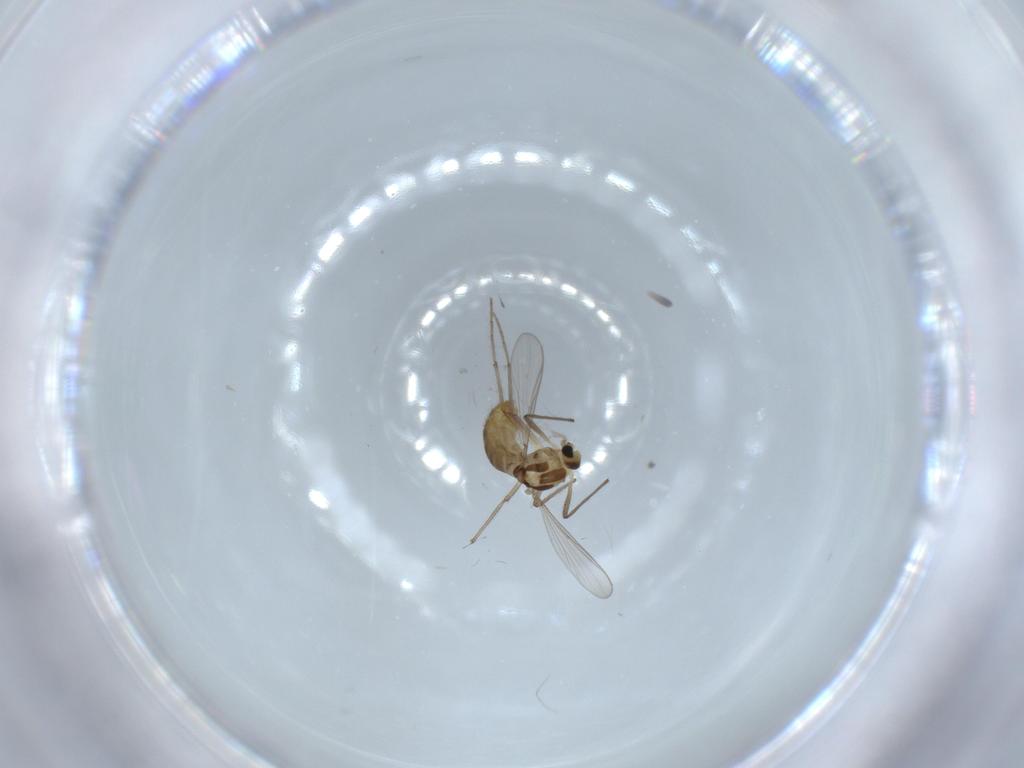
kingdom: Animalia
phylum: Arthropoda
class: Insecta
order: Diptera
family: Chironomidae
